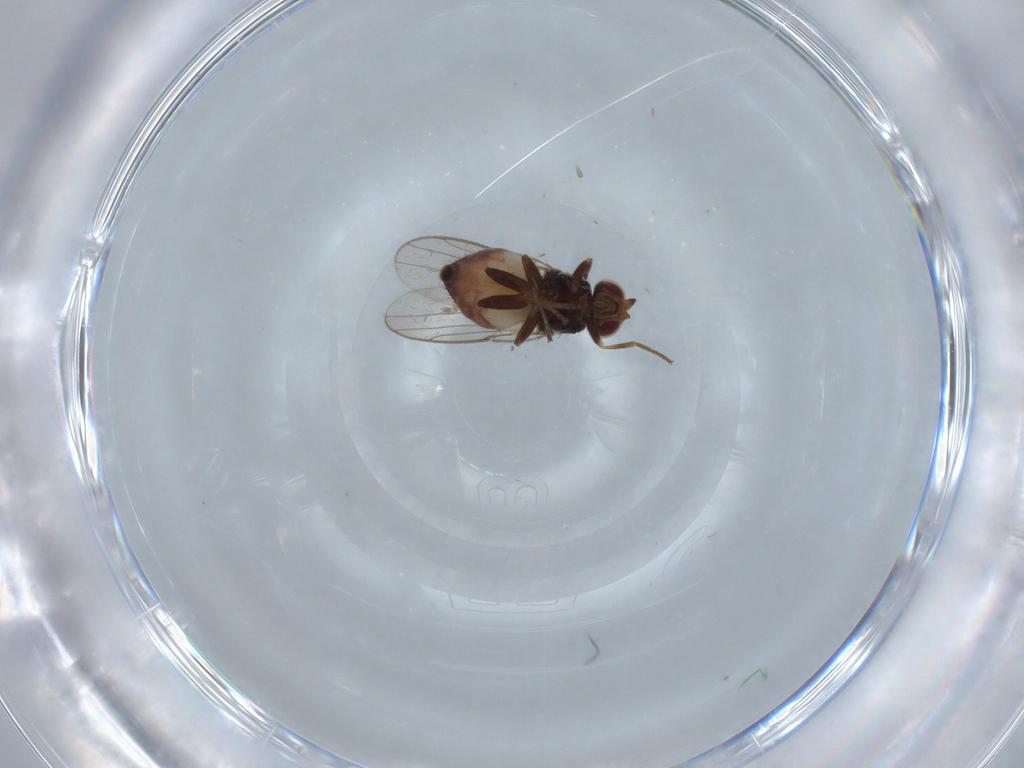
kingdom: Animalia
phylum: Arthropoda
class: Insecta
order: Diptera
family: Chloropidae
